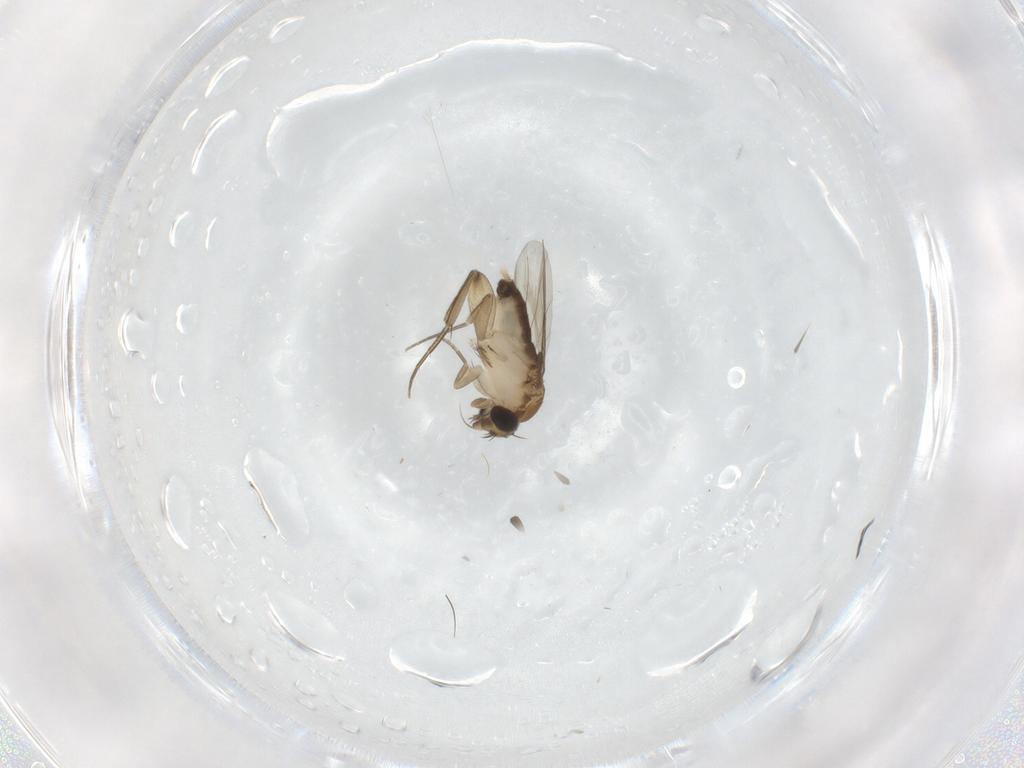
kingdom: Animalia
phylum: Arthropoda
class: Insecta
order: Diptera
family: Phoridae
